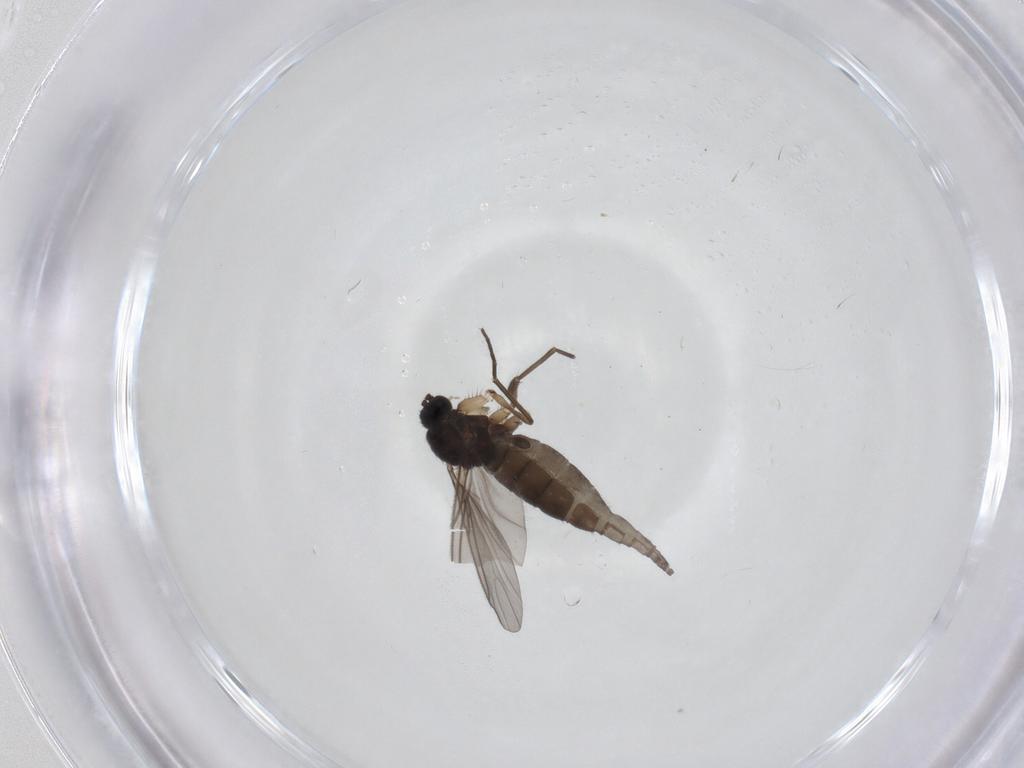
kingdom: Animalia
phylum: Arthropoda
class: Insecta
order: Diptera
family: Sciaridae
